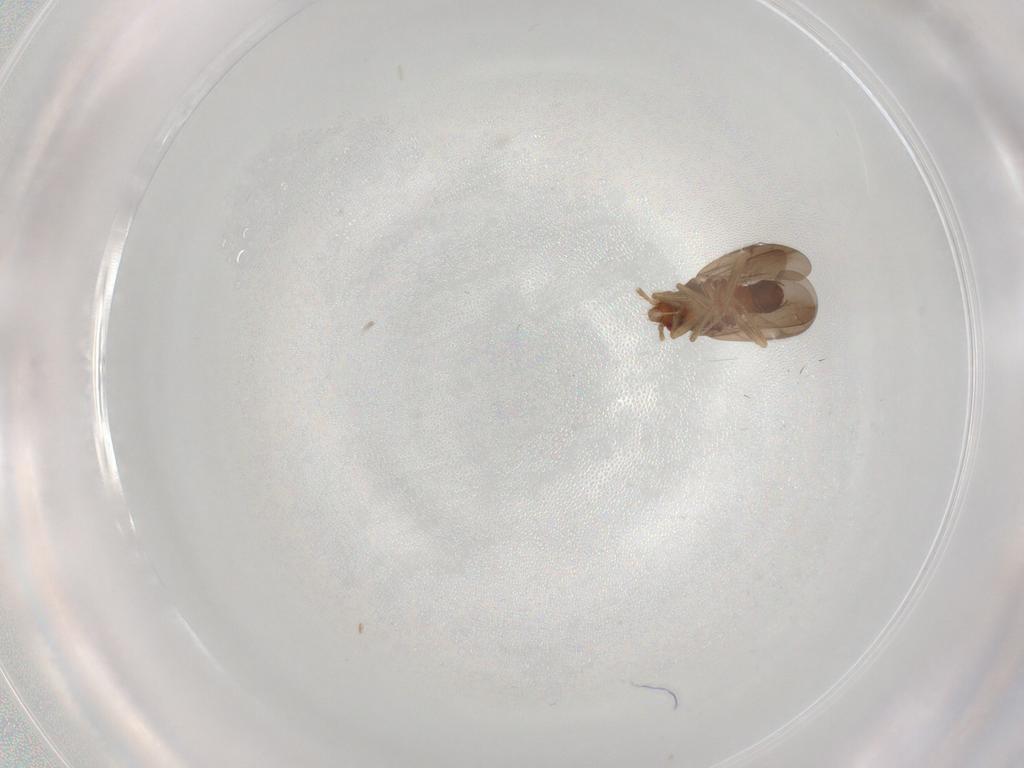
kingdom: Animalia
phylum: Arthropoda
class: Insecta
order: Hemiptera
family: Ceratocombidae
